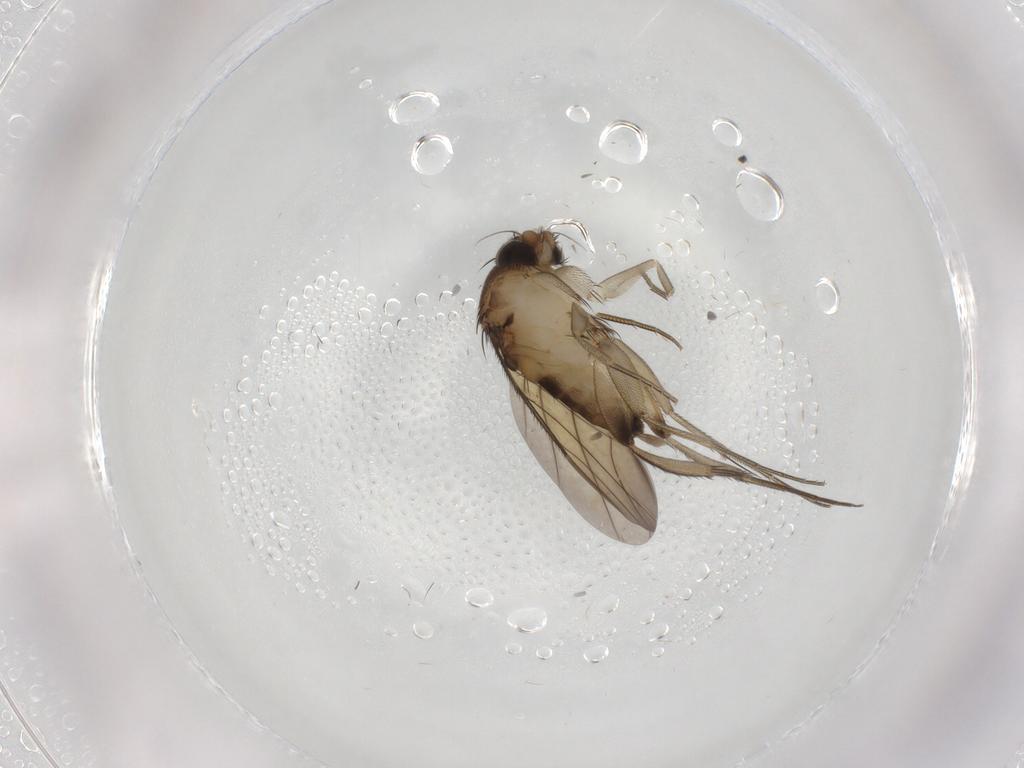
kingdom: Animalia
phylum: Arthropoda
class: Insecta
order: Diptera
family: Phoridae
